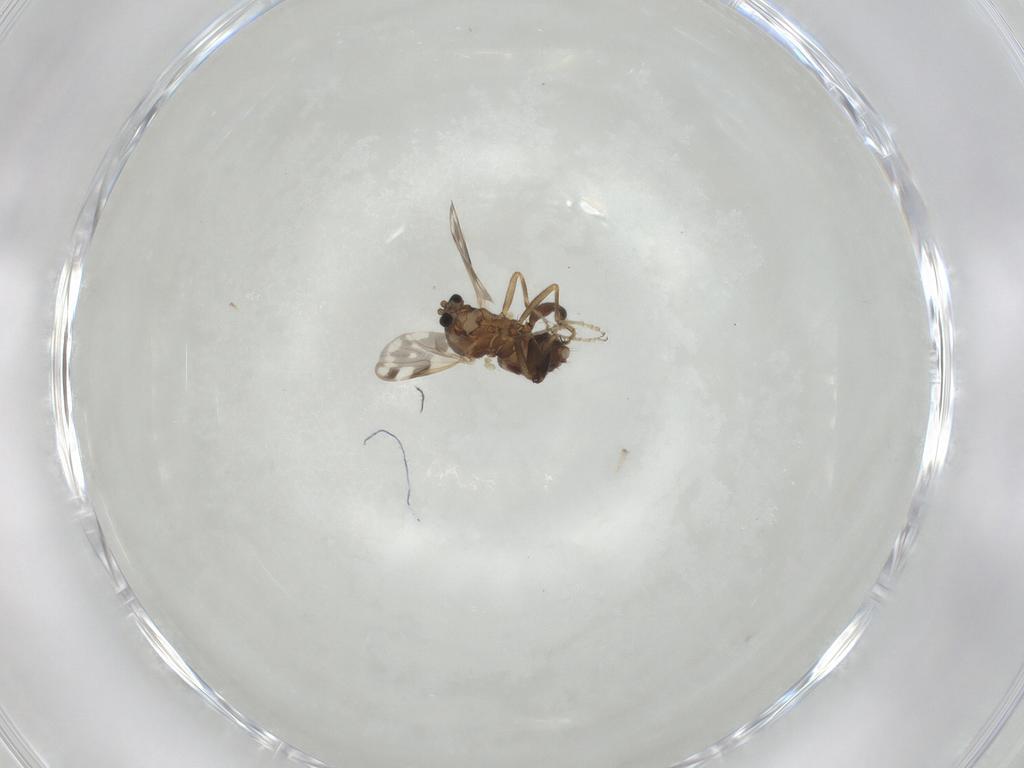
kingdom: Animalia
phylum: Arthropoda
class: Insecta
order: Diptera
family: Ceratopogonidae
